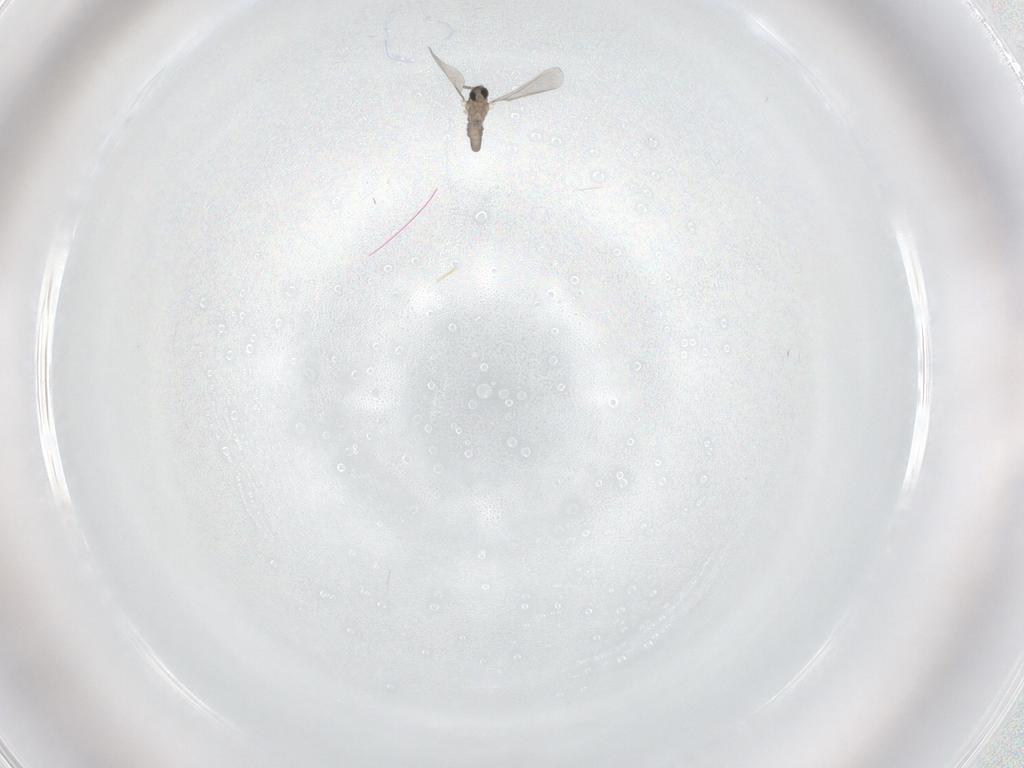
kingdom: Animalia
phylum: Arthropoda
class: Insecta
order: Diptera
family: Cecidomyiidae
